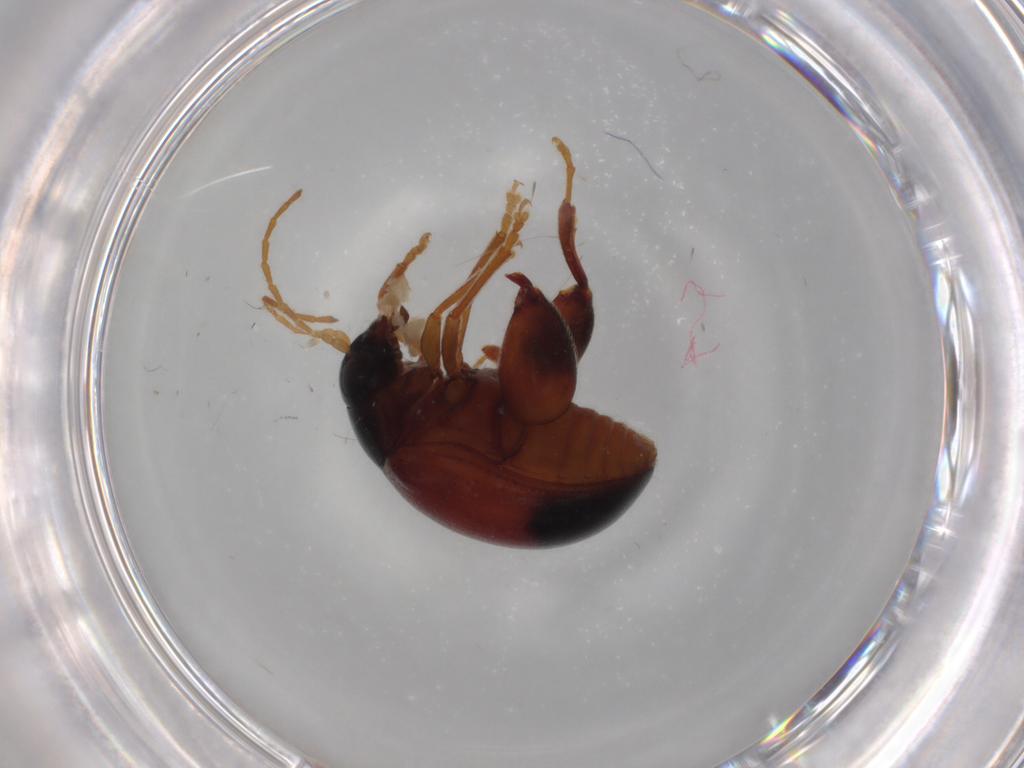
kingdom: Animalia
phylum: Arthropoda
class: Insecta
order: Coleoptera
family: Chrysomelidae
